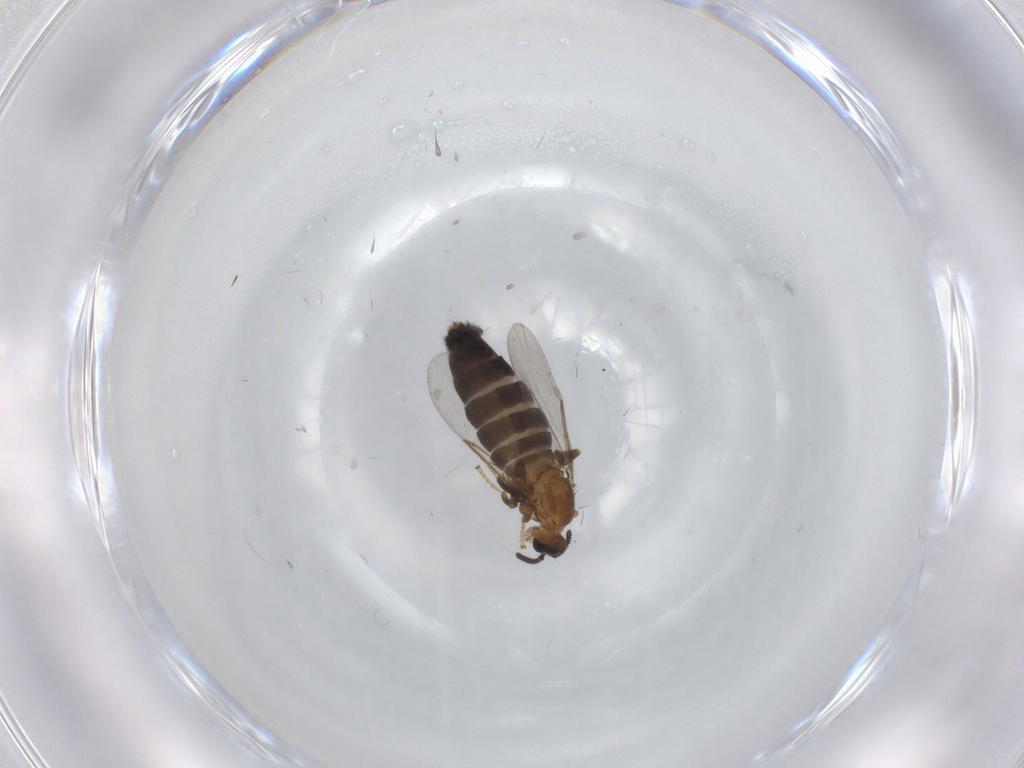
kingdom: Animalia
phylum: Arthropoda
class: Insecta
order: Diptera
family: Scatopsidae
